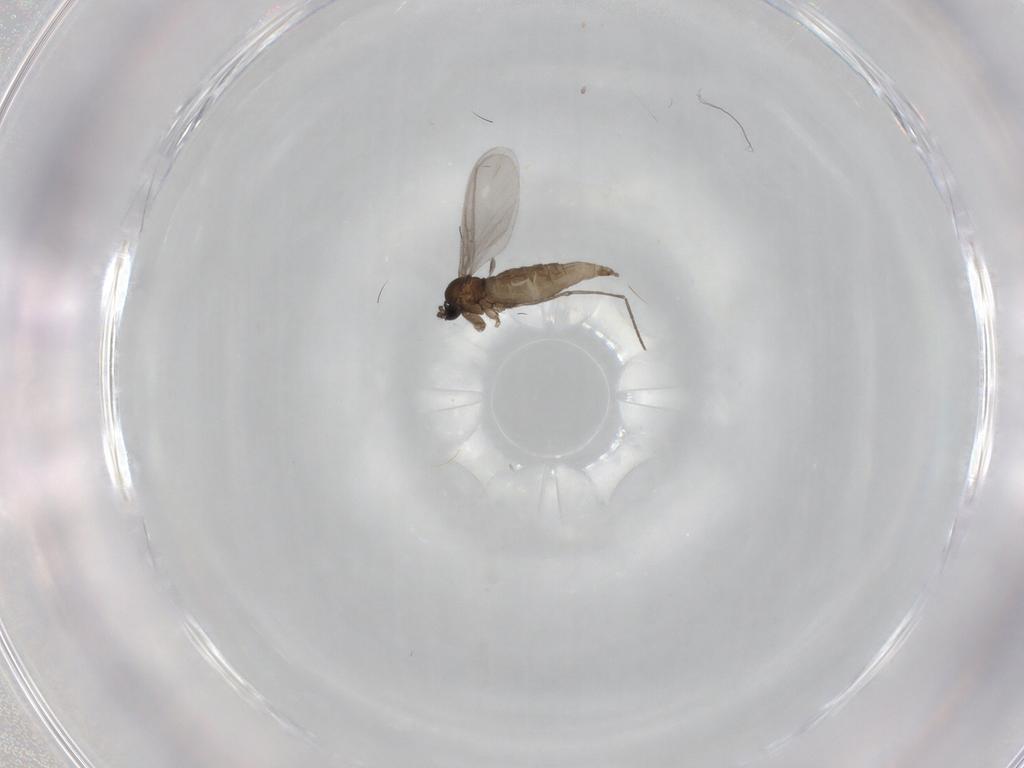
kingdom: Animalia
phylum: Arthropoda
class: Insecta
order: Diptera
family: Sciaridae
